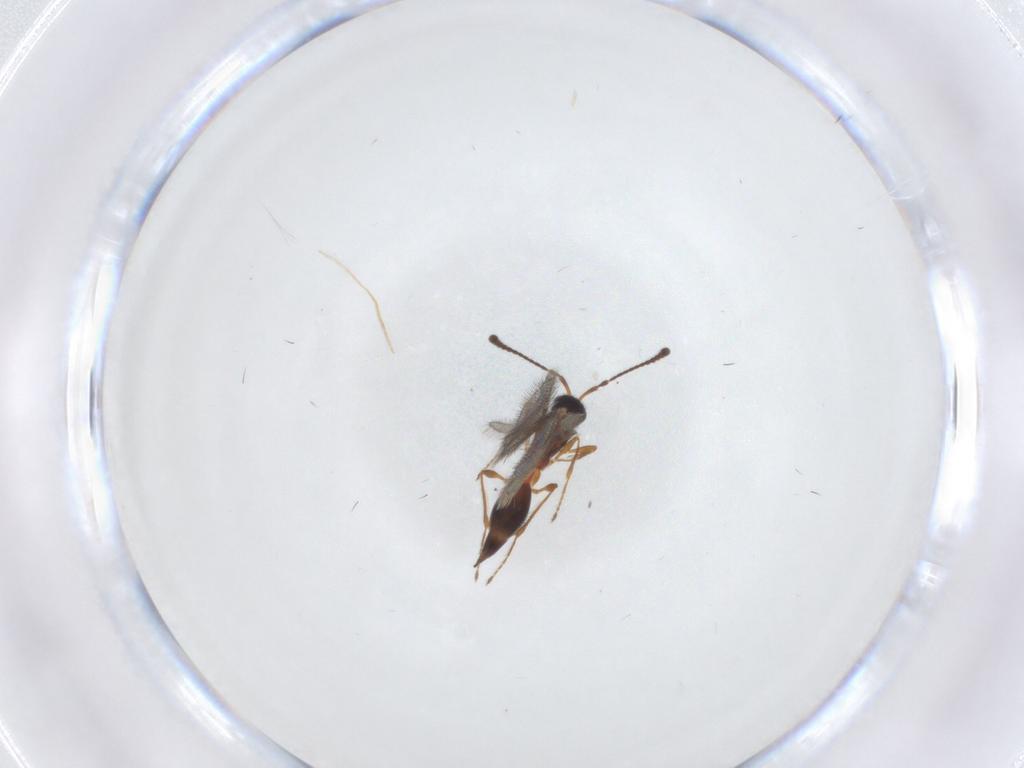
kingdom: Animalia
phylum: Arthropoda
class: Insecta
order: Hymenoptera
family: Diapriidae
